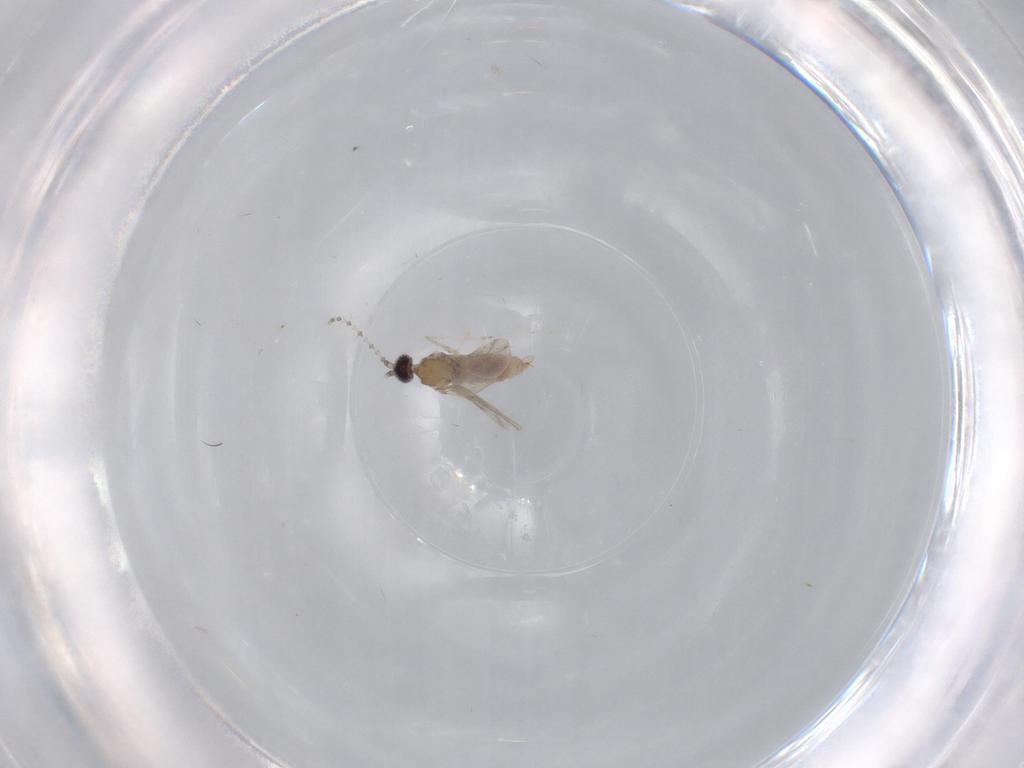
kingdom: Animalia
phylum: Arthropoda
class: Insecta
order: Diptera
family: Cecidomyiidae
